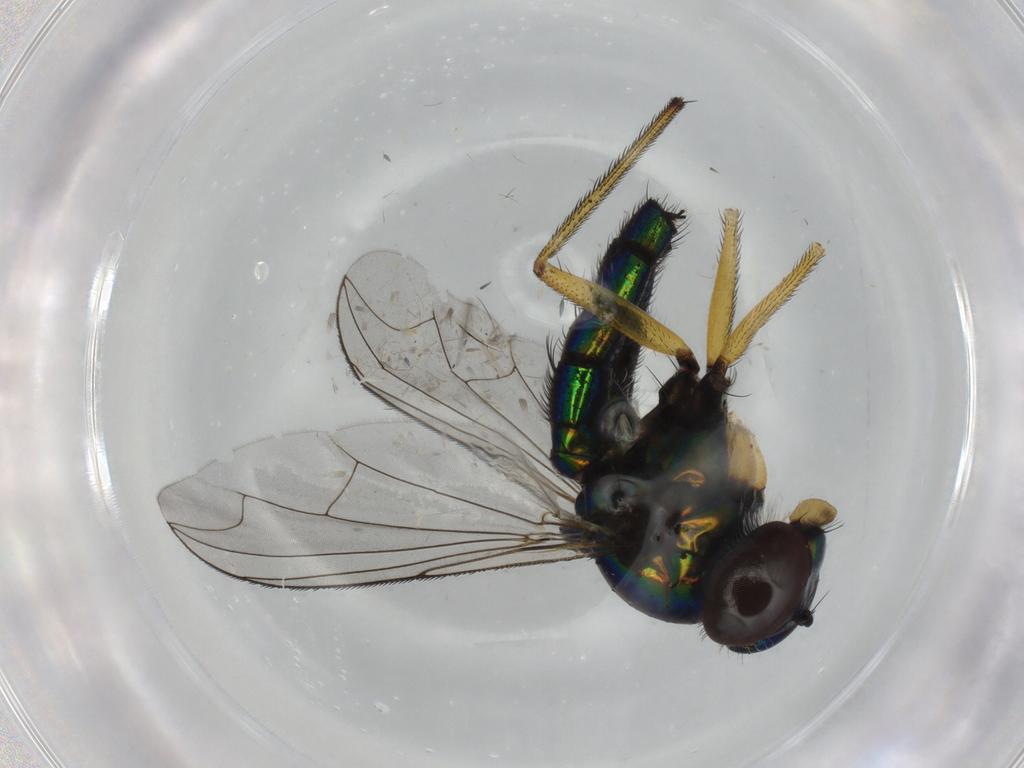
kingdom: Animalia
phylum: Arthropoda
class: Insecta
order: Diptera
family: Dolichopodidae
